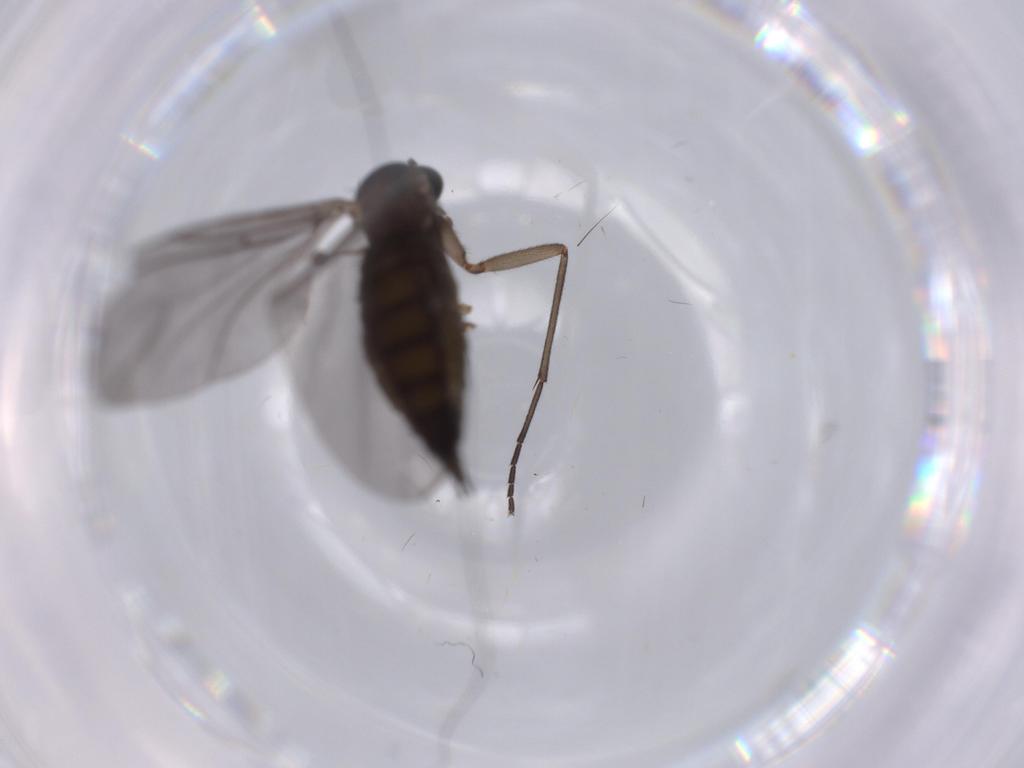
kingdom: Animalia
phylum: Arthropoda
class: Insecta
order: Diptera
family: Sciaridae
